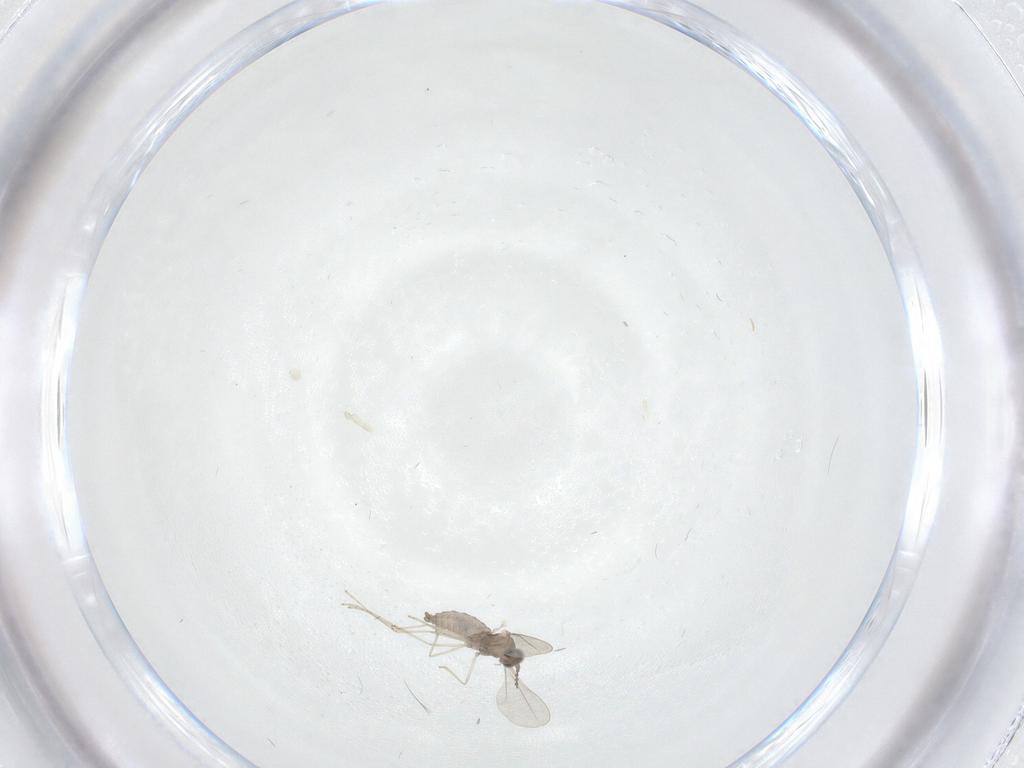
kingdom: Animalia
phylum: Arthropoda
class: Insecta
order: Diptera
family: Cecidomyiidae
